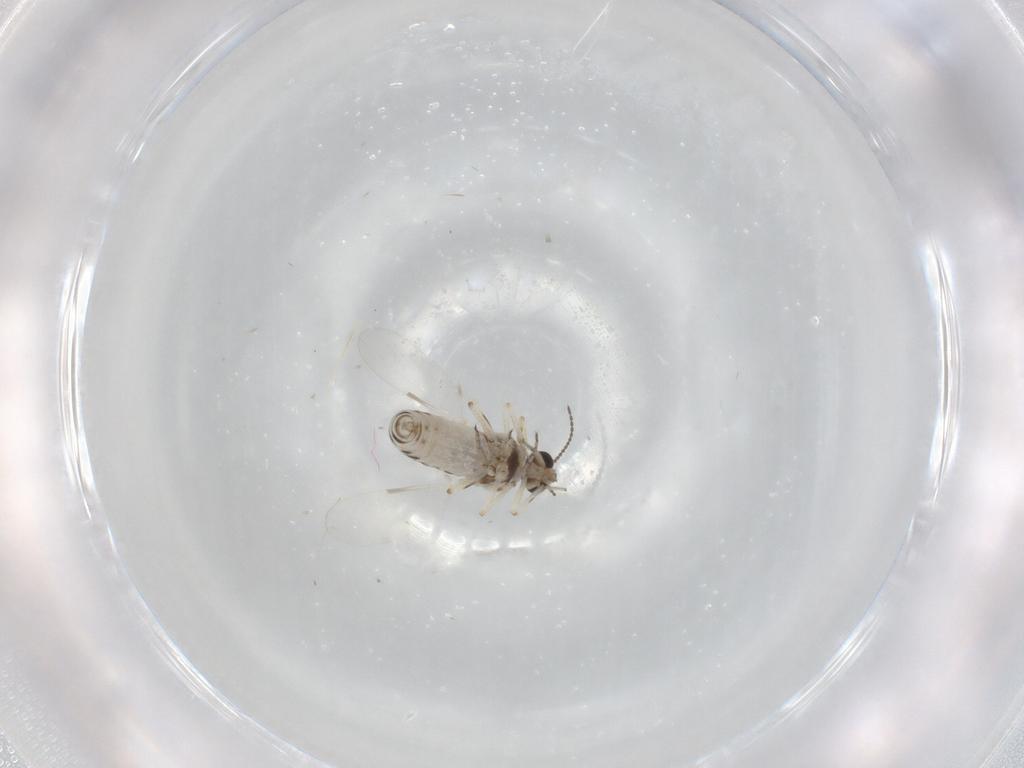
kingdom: Animalia
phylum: Arthropoda
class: Insecta
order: Diptera
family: Chloropidae
